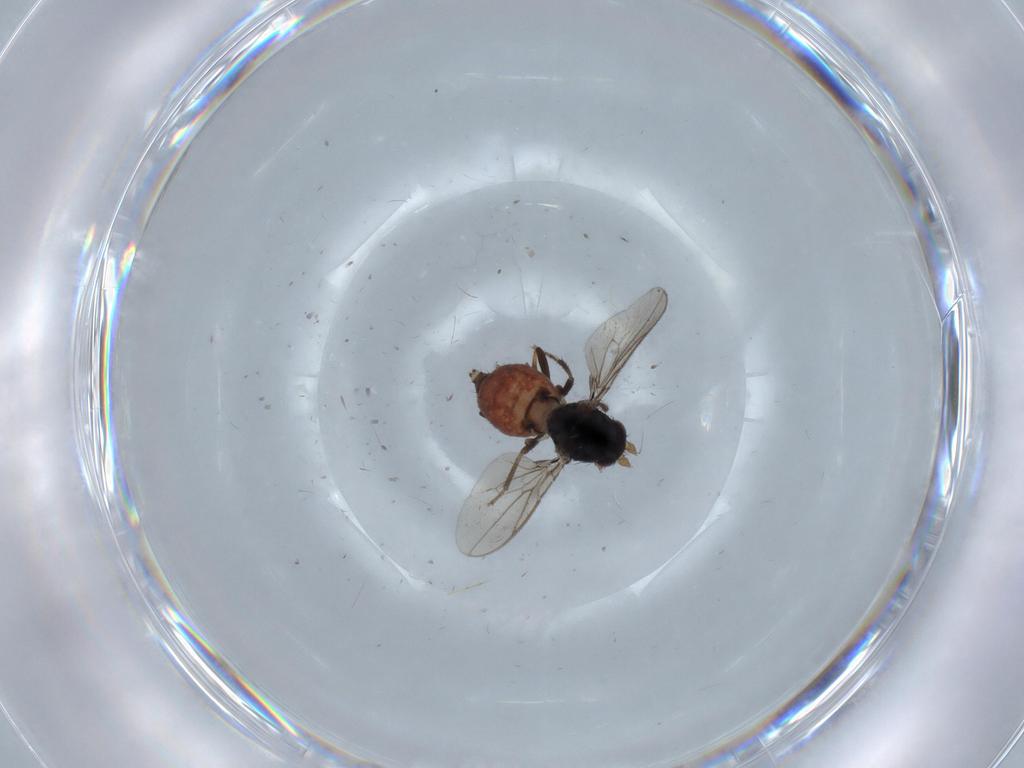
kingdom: Animalia
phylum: Arthropoda
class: Insecta
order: Diptera
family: Sphaeroceridae
